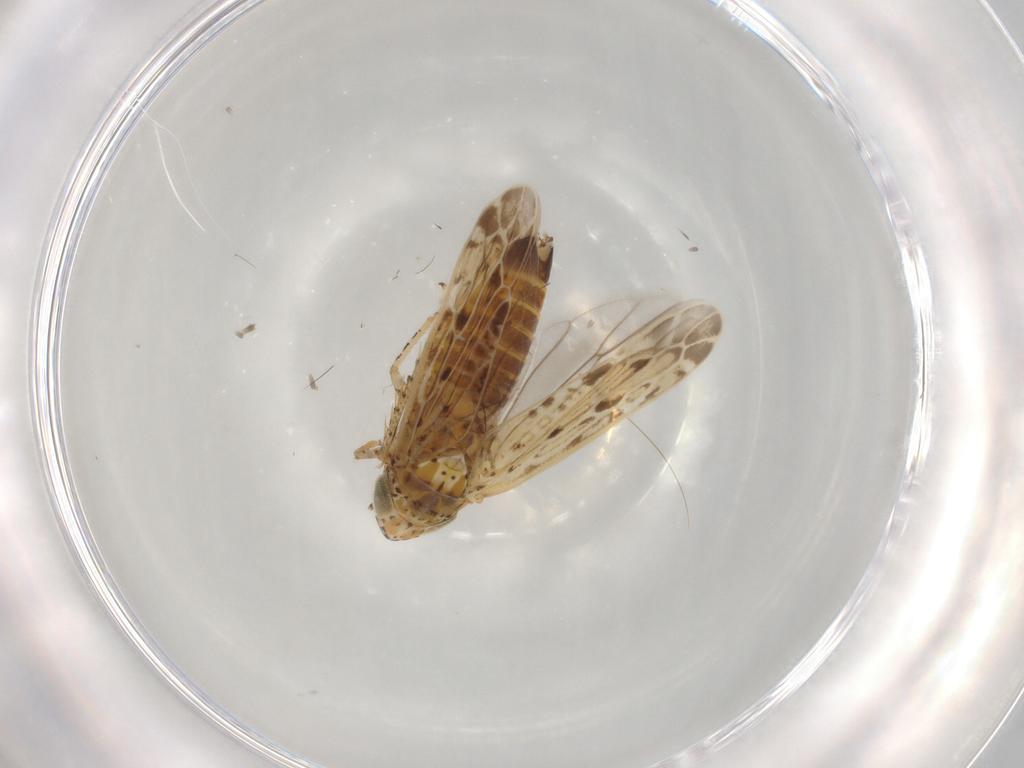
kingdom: Animalia
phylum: Arthropoda
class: Insecta
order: Hemiptera
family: Cicadellidae
